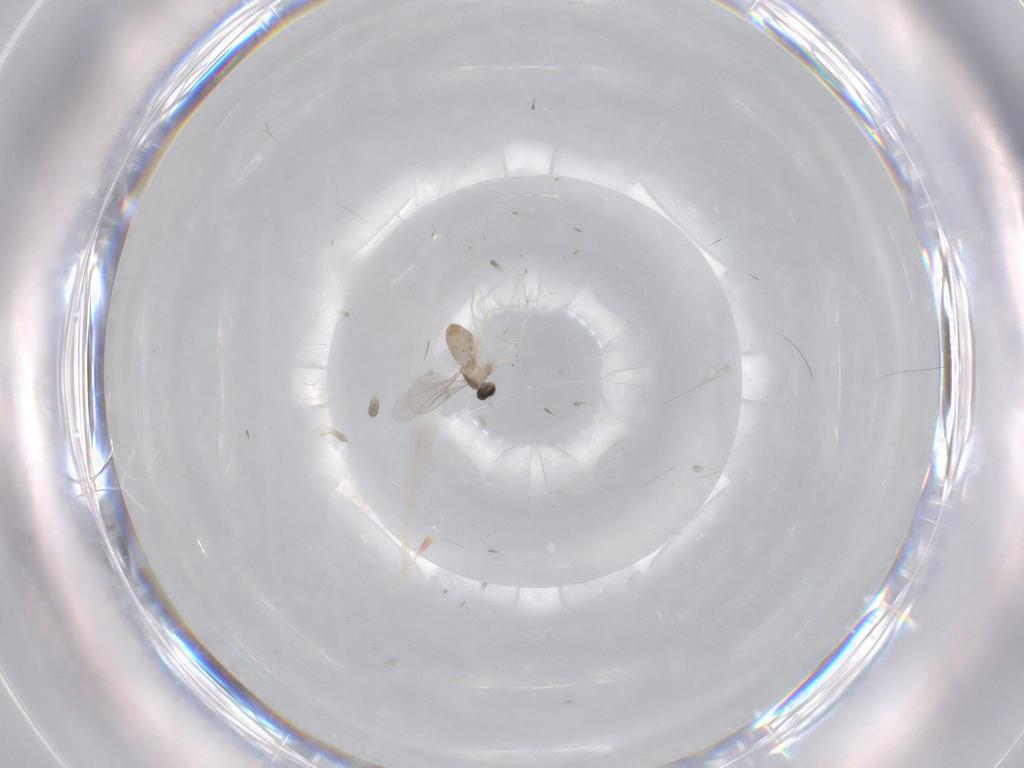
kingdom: Animalia
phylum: Arthropoda
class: Insecta
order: Diptera
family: Cecidomyiidae
